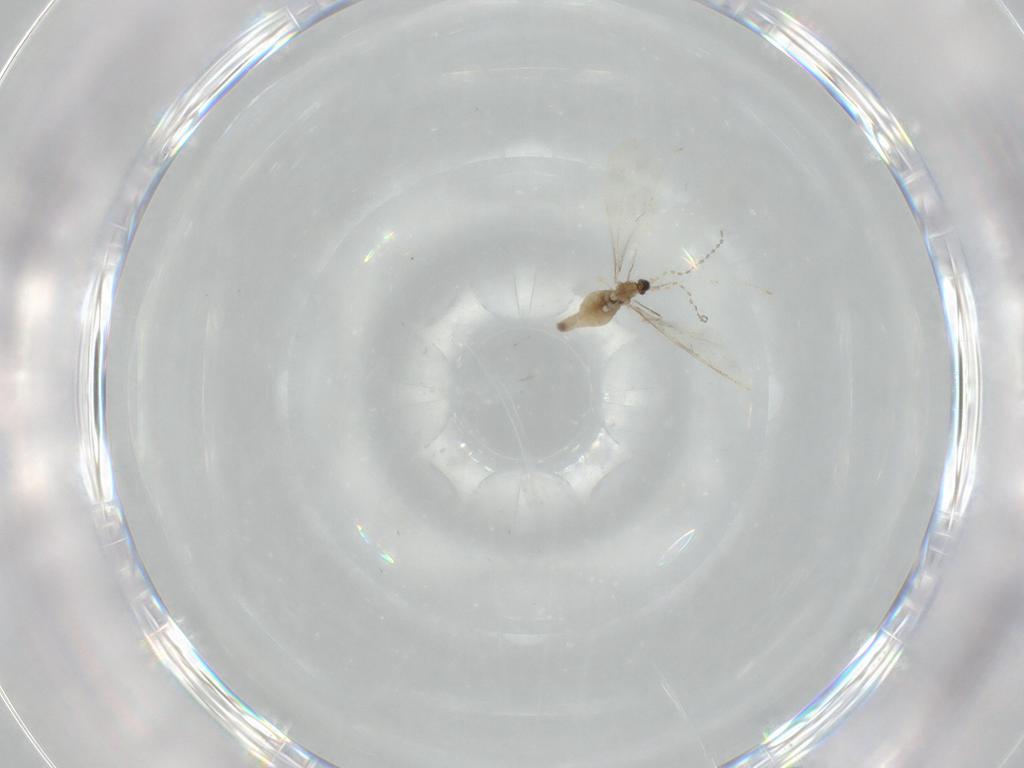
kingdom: Animalia
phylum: Arthropoda
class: Insecta
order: Diptera
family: Cecidomyiidae
